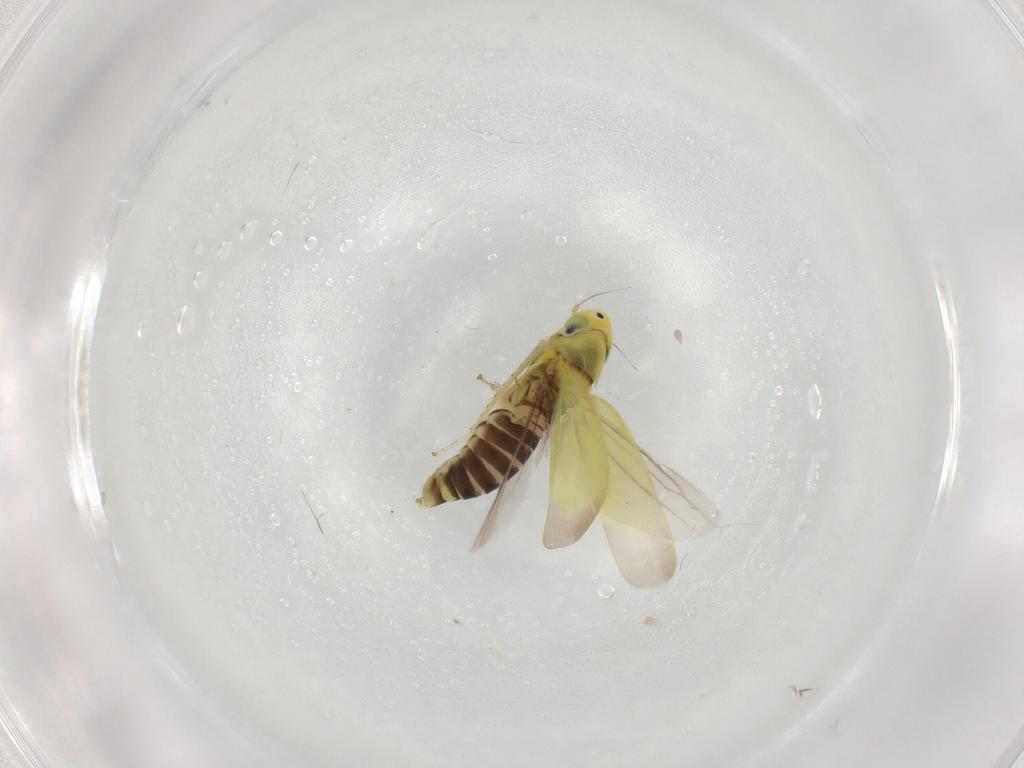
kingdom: Animalia
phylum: Arthropoda
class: Insecta
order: Hemiptera
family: Cicadellidae
